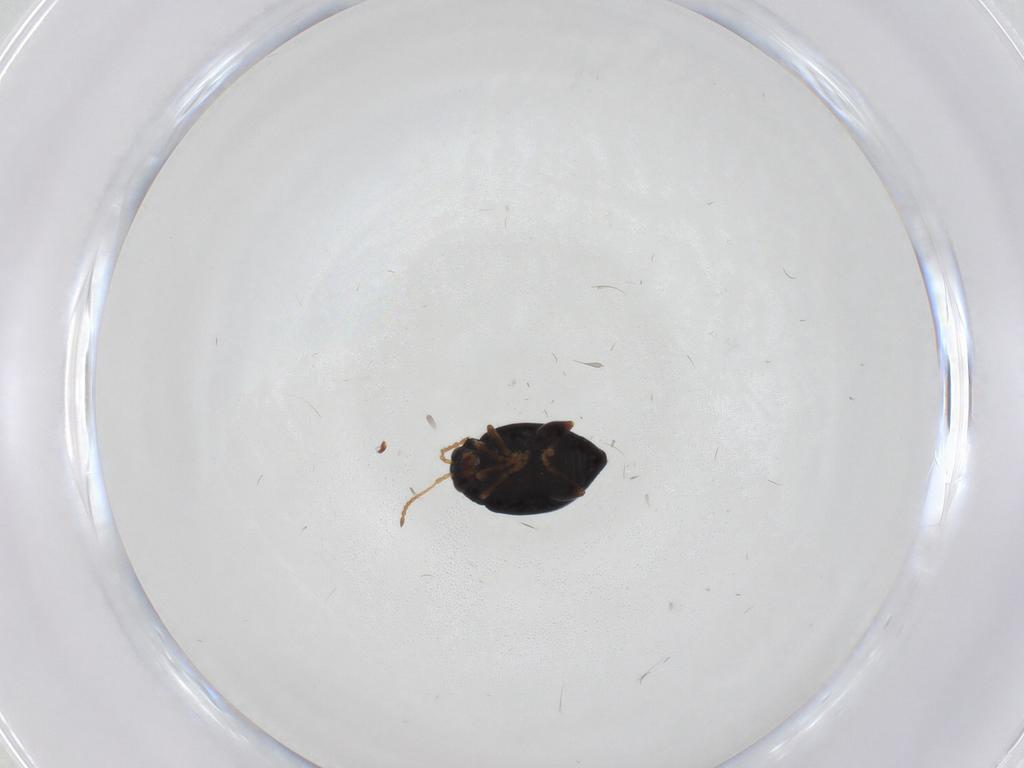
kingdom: Animalia
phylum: Arthropoda
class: Insecta
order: Coleoptera
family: Chrysomelidae
